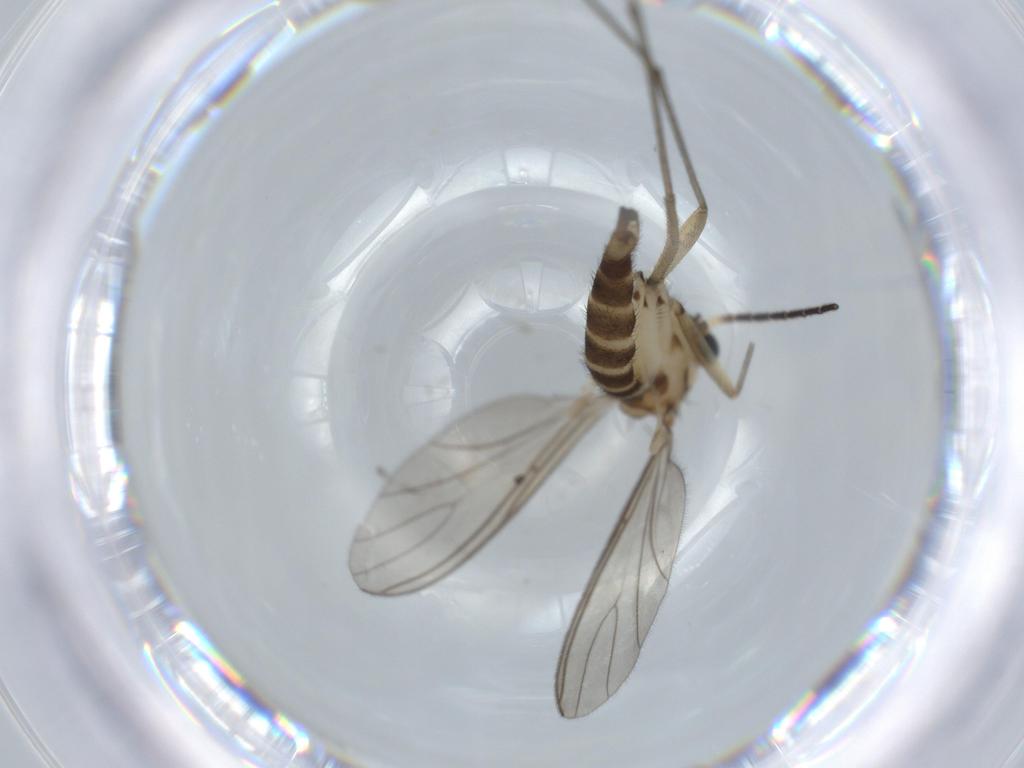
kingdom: Animalia
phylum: Arthropoda
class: Insecta
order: Diptera
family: Sciaridae
